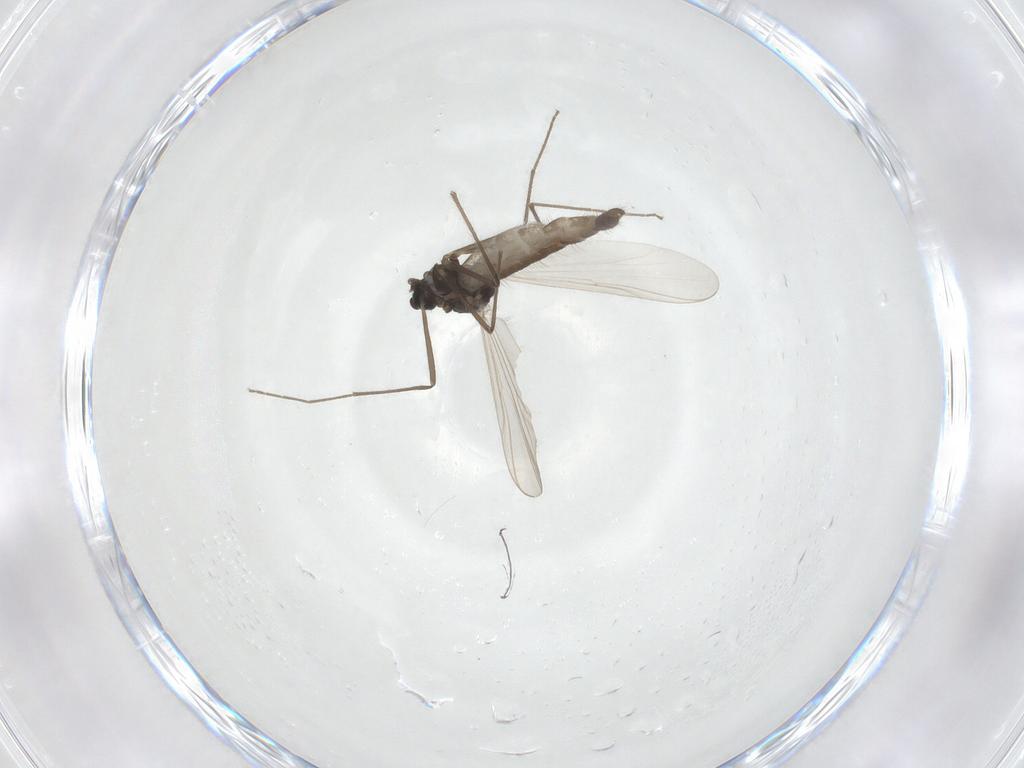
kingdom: Animalia
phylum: Arthropoda
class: Insecta
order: Diptera
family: Chironomidae
